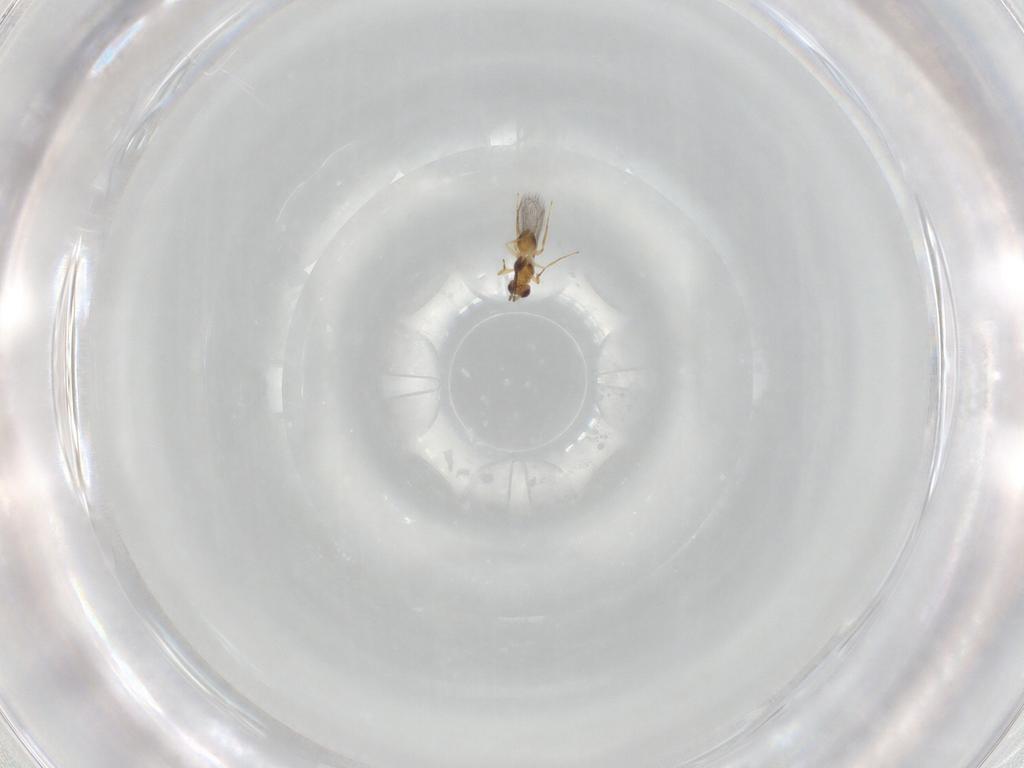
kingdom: Animalia
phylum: Arthropoda
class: Insecta
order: Hymenoptera
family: Mymaridae
